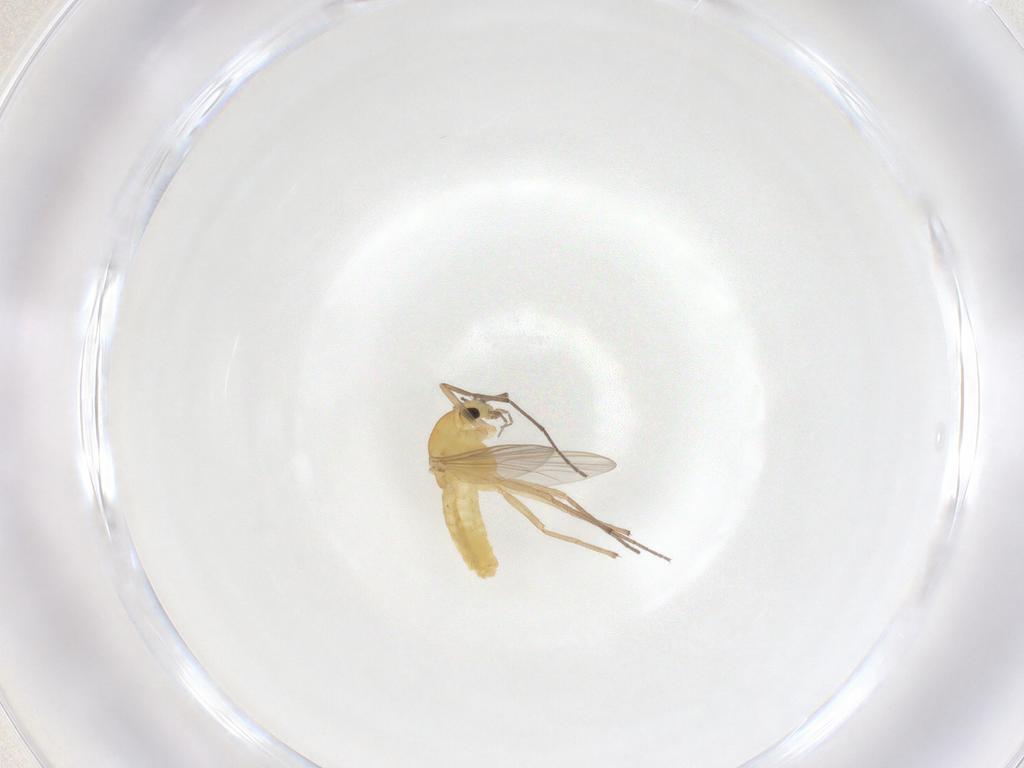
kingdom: Animalia
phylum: Arthropoda
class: Insecta
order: Diptera
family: Chironomidae
